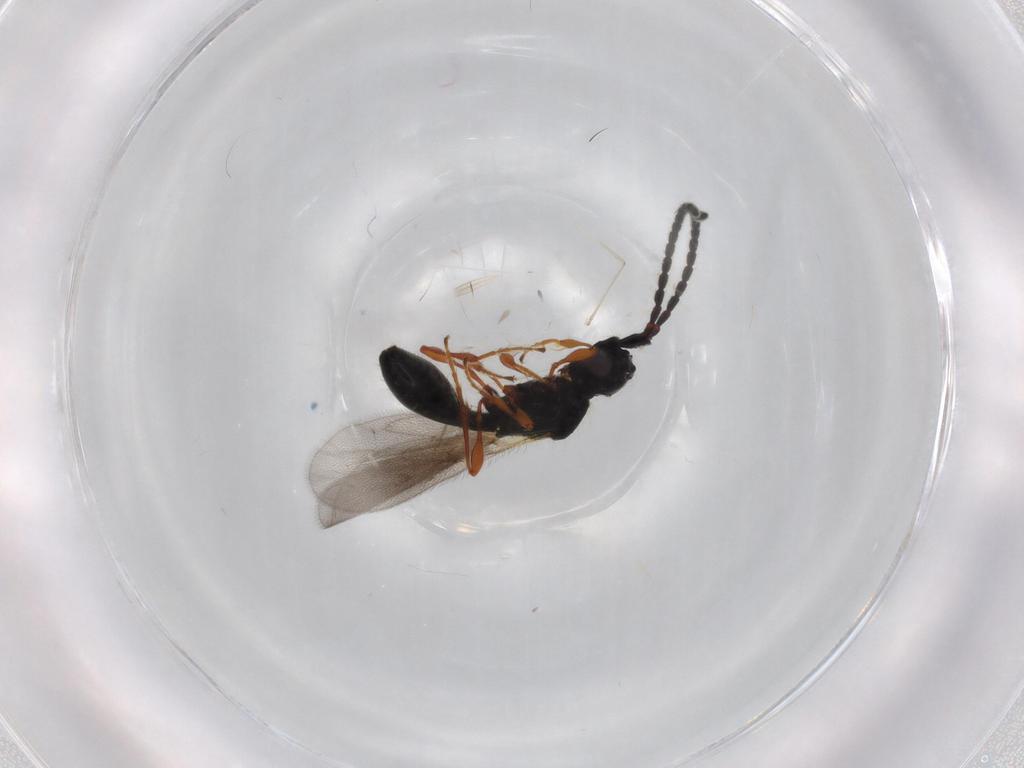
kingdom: Animalia
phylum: Arthropoda
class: Insecta
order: Hymenoptera
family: Diapriidae
